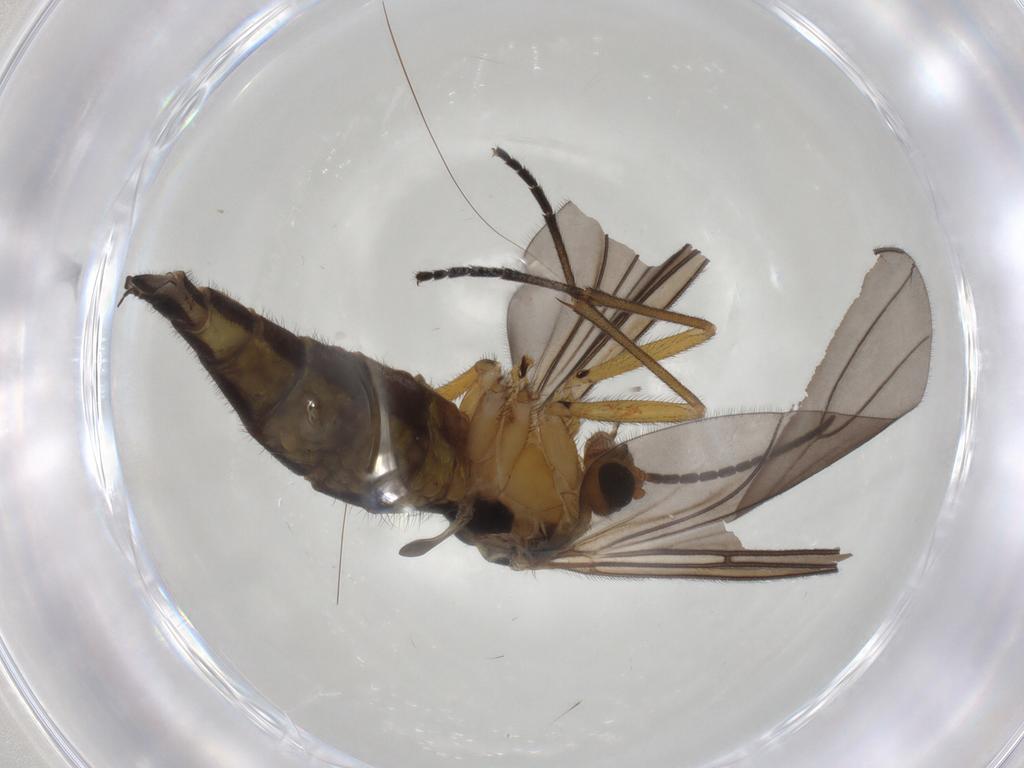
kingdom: Animalia
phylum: Arthropoda
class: Insecta
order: Diptera
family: Sciaridae
